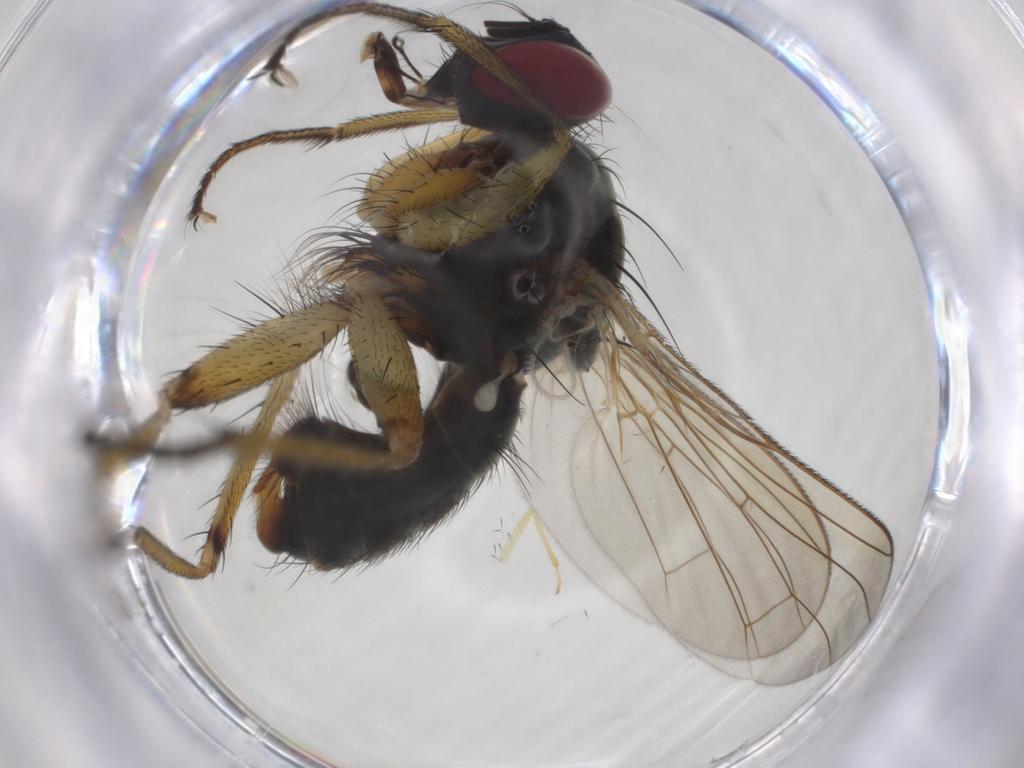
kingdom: Animalia
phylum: Arthropoda
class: Insecta
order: Diptera
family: Muscidae
